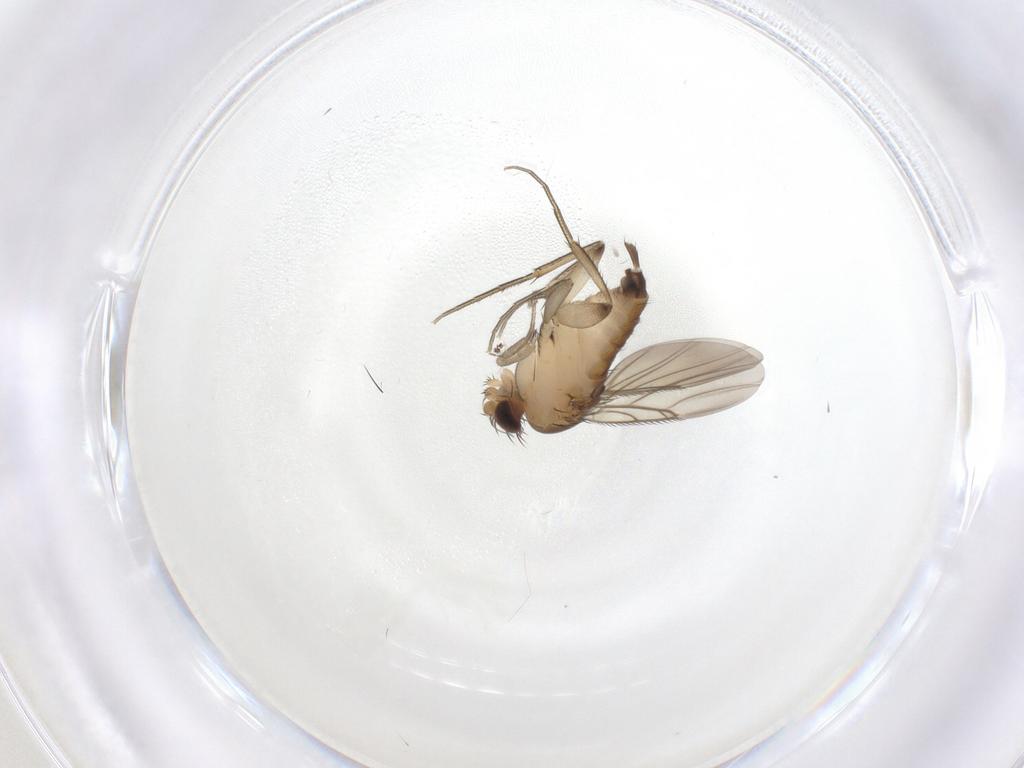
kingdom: Animalia
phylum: Arthropoda
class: Insecta
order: Diptera
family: Phoridae
